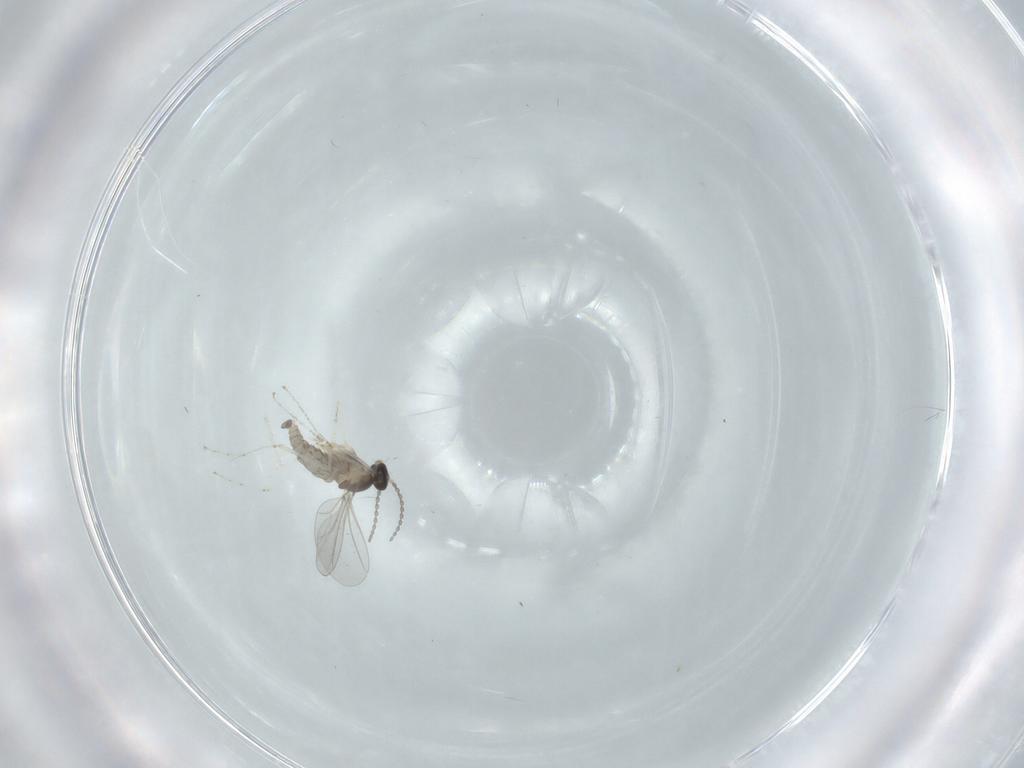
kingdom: Animalia
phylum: Arthropoda
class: Insecta
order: Diptera
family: Cecidomyiidae
